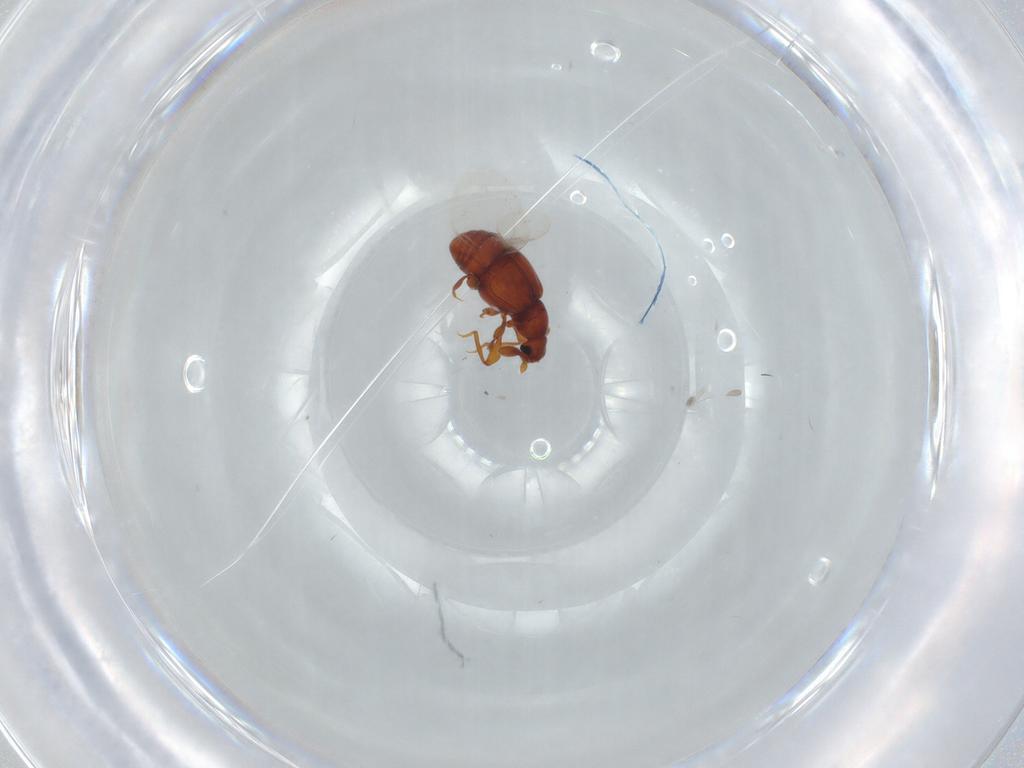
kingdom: Animalia
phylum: Arthropoda
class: Insecta
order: Coleoptera
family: Staphylinidae
